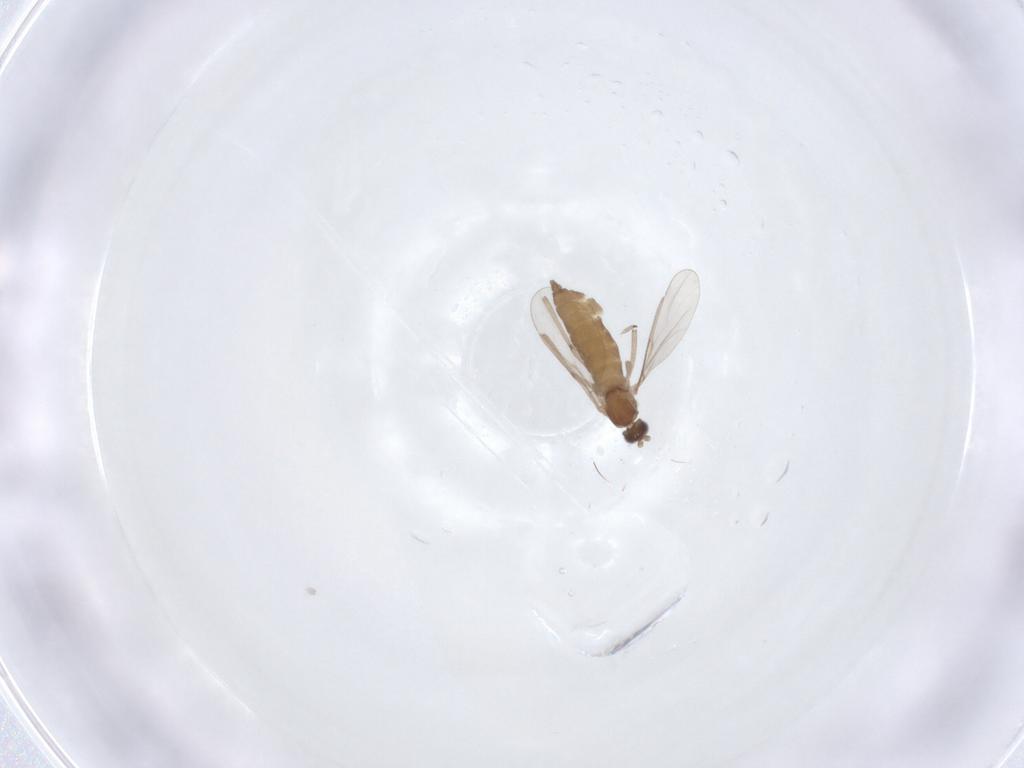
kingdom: Animalia
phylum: Arthropoda
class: Insecta
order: Diptera
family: Cecidomyiidae
